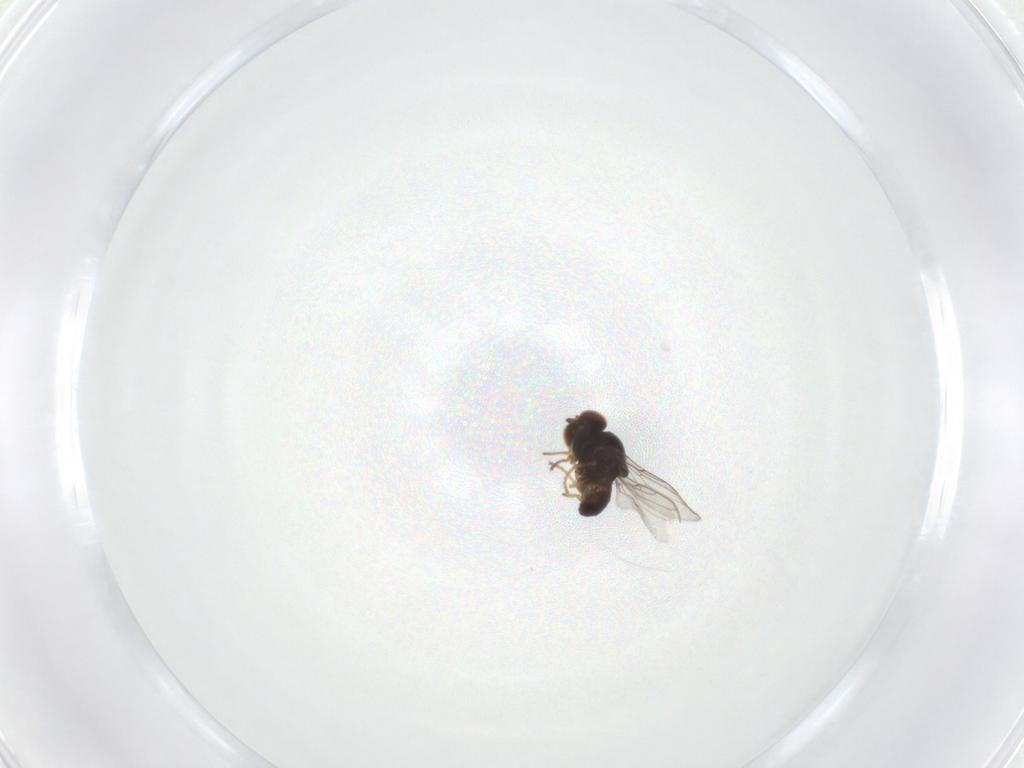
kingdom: Animalia
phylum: Arthropoda
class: Insecta
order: Diptera
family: Chloropidae
